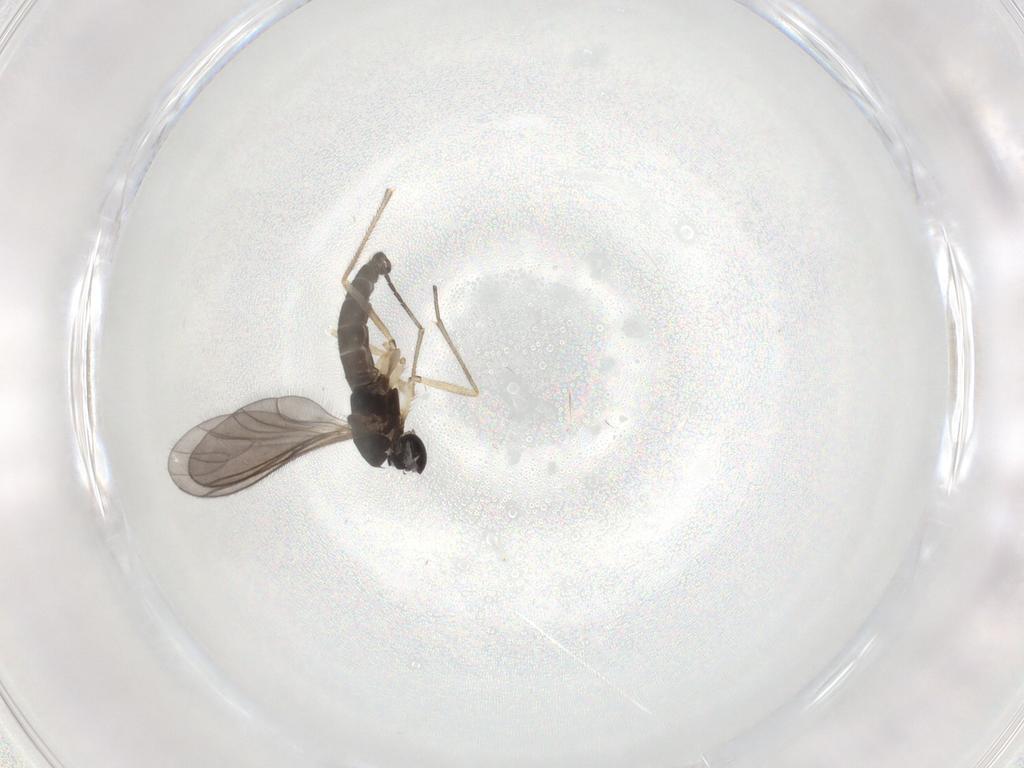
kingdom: Animalia
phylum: Arthropoda
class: Insecta
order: Diptera
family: Sciaridae
